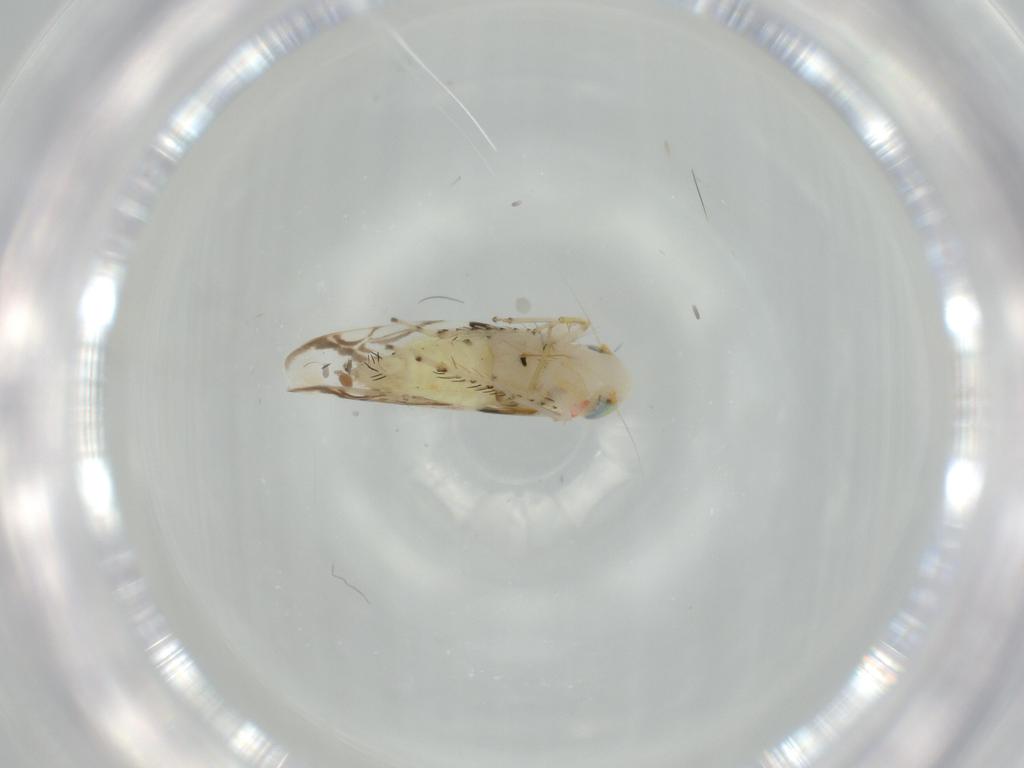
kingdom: Animalia
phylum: Arthropoda
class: Insecta
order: Hemiptera
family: Cicadellidae
